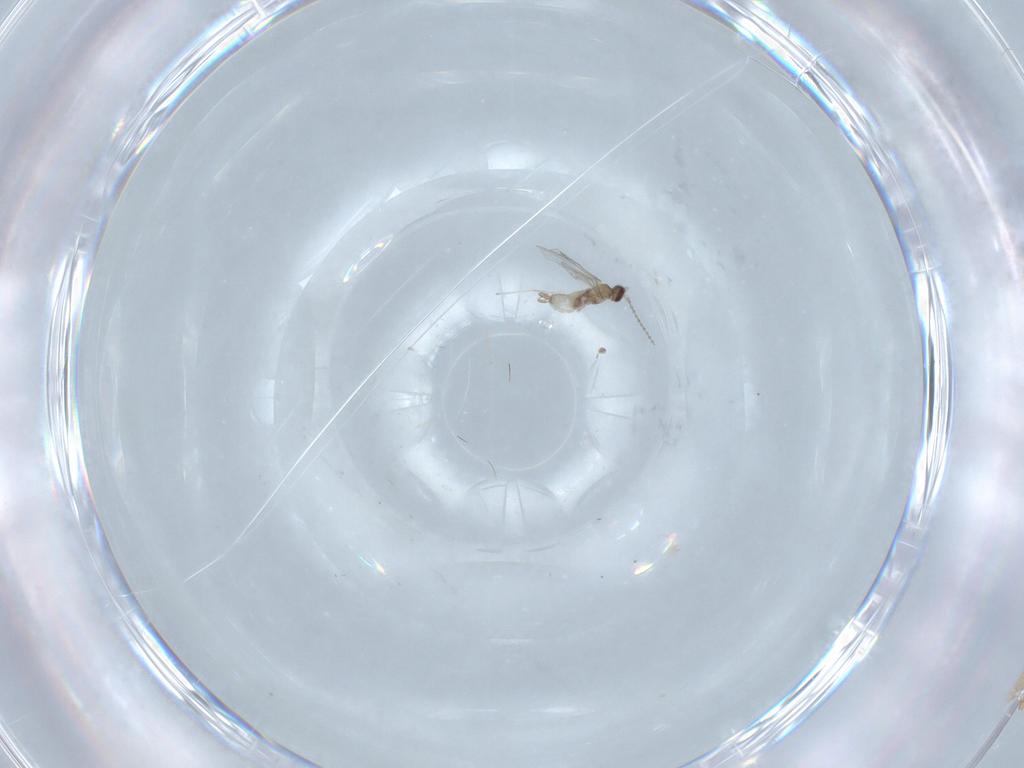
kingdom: Animalia
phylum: Arthropoda
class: Insecta
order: Diptera
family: Cecidomyiidae
